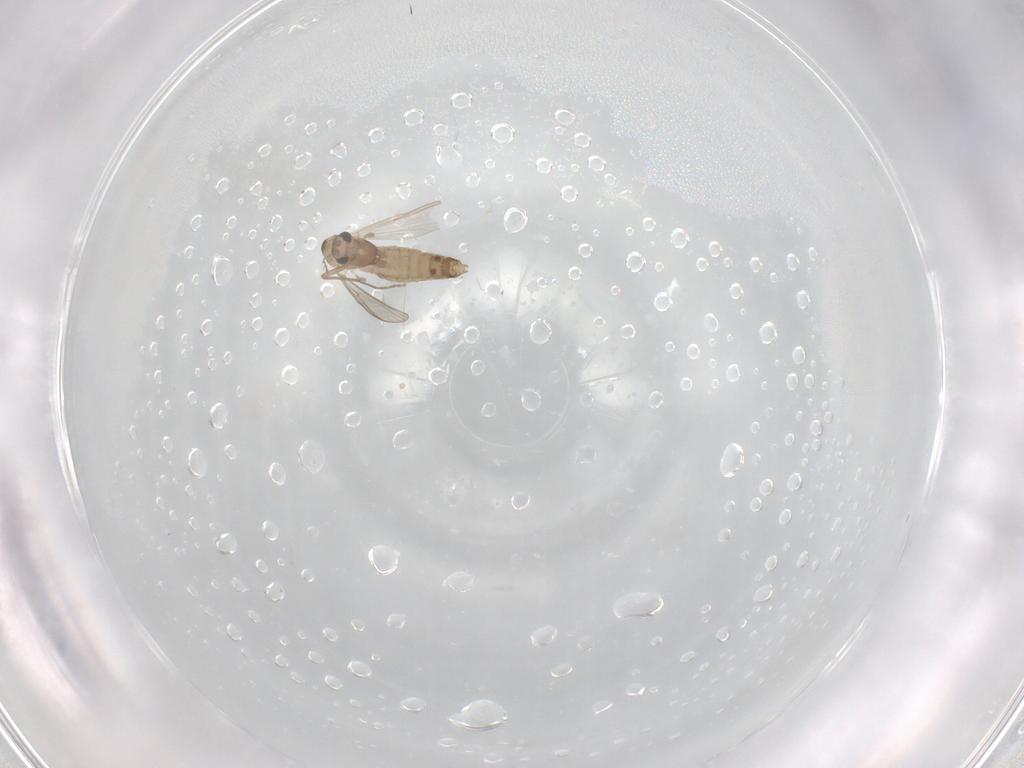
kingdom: Animalia
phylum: Arthropoda
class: Insecta
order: Diptera
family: Chironomidae
